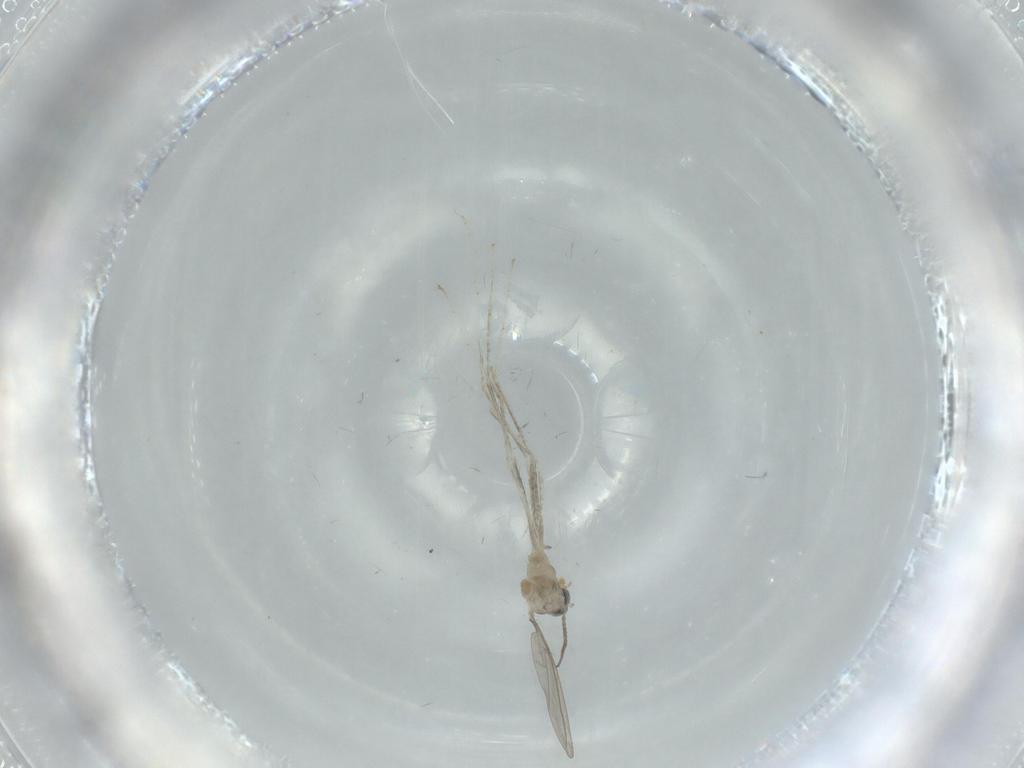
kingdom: Animalia
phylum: Arthropoda
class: Insecta
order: Diptera
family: Cecidomyiidae
